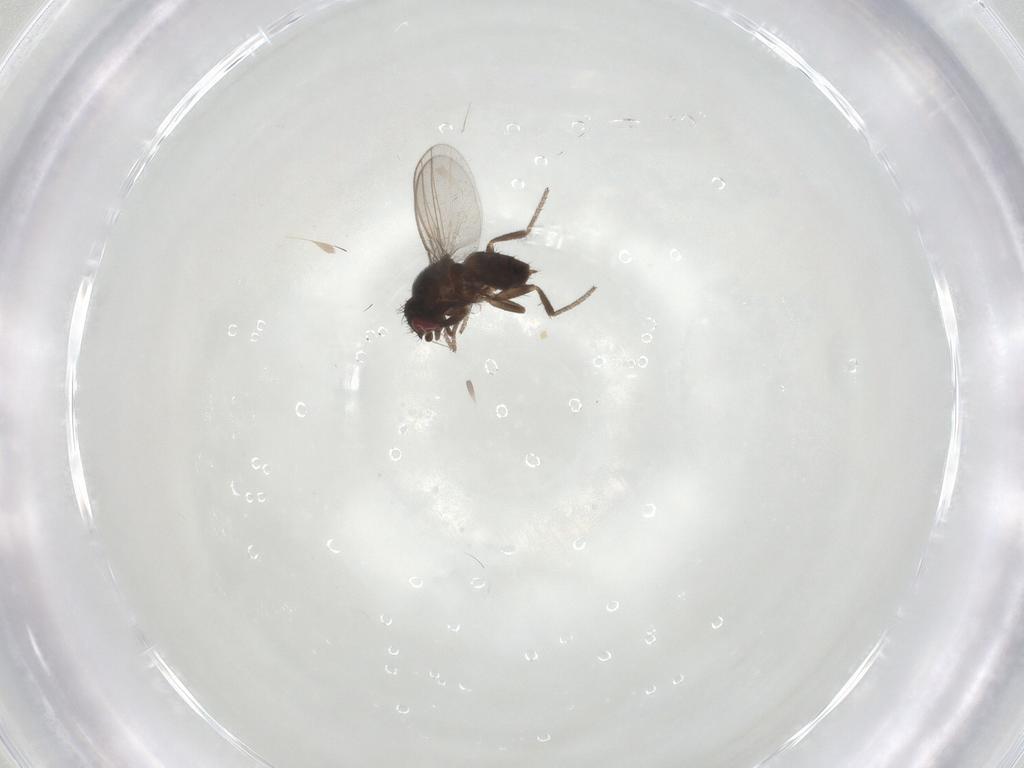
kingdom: Animalia
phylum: Arthropoda
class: Insecta
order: Diptera
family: Milichiidae
